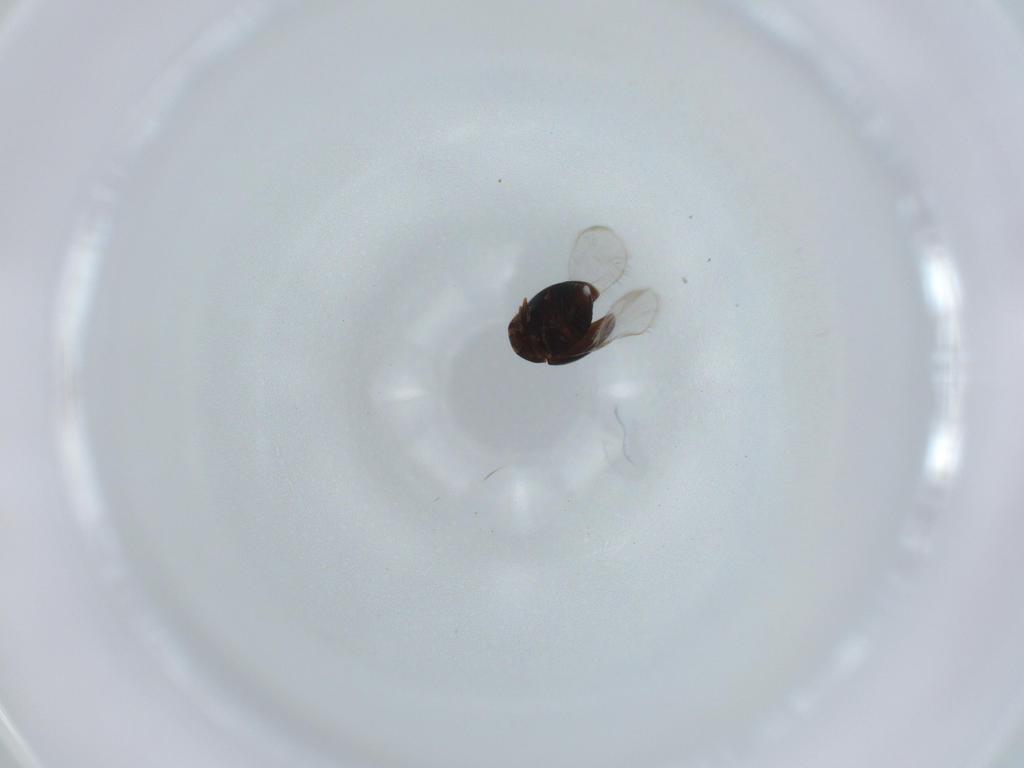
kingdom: Animalia
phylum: Arthropoda
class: Insecta
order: Coleoptera
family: Corylophidae
